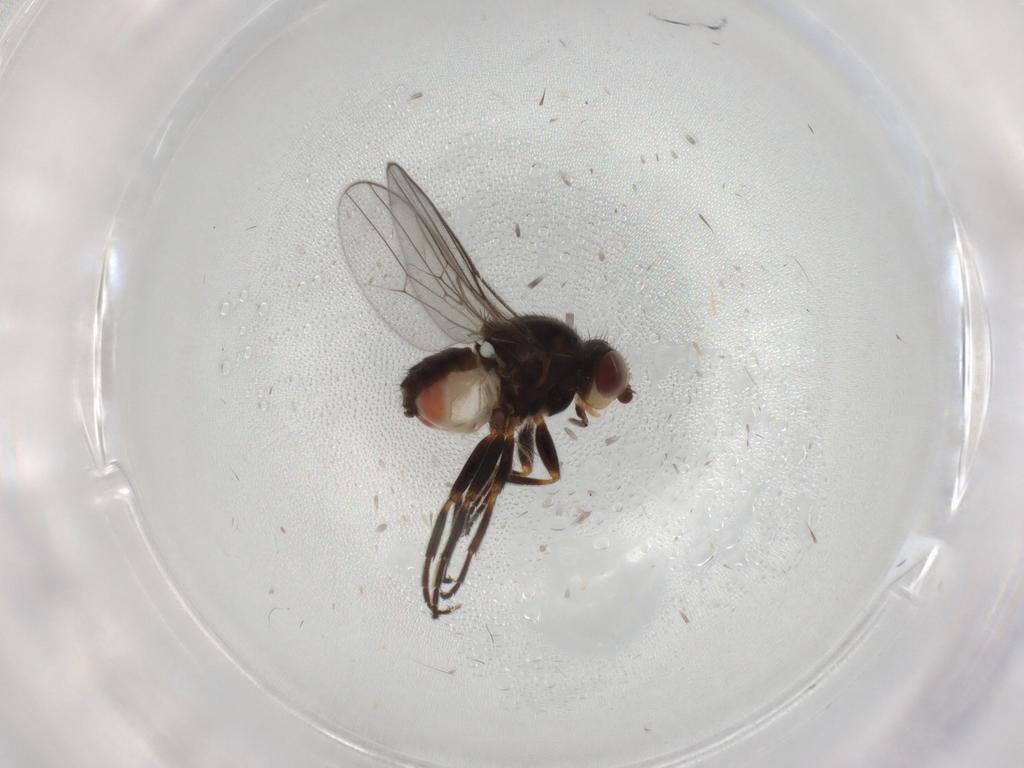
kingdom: Animalia
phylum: Arthropoda
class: Insecta
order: Diptera
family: Chloropidae
